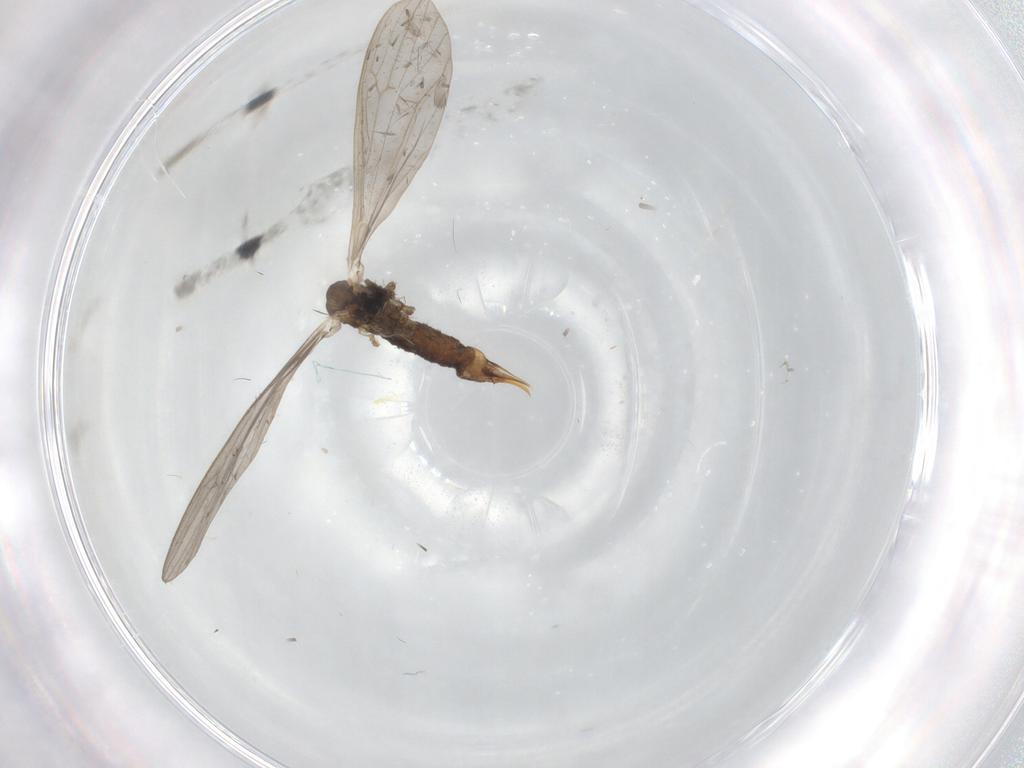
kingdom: Animalia
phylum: Arthropoda
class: Insecta
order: Diptera
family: Limoniidae
